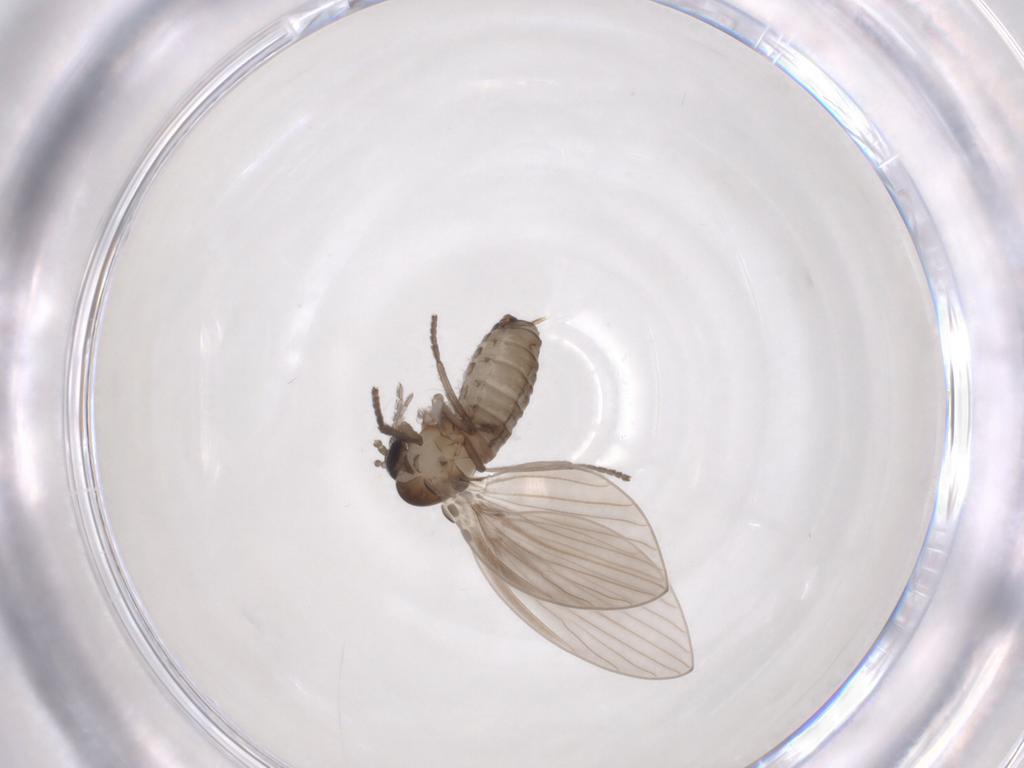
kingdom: Animalia
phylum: Arthropoda
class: Insecta
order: Diptera
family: Psychodidae
